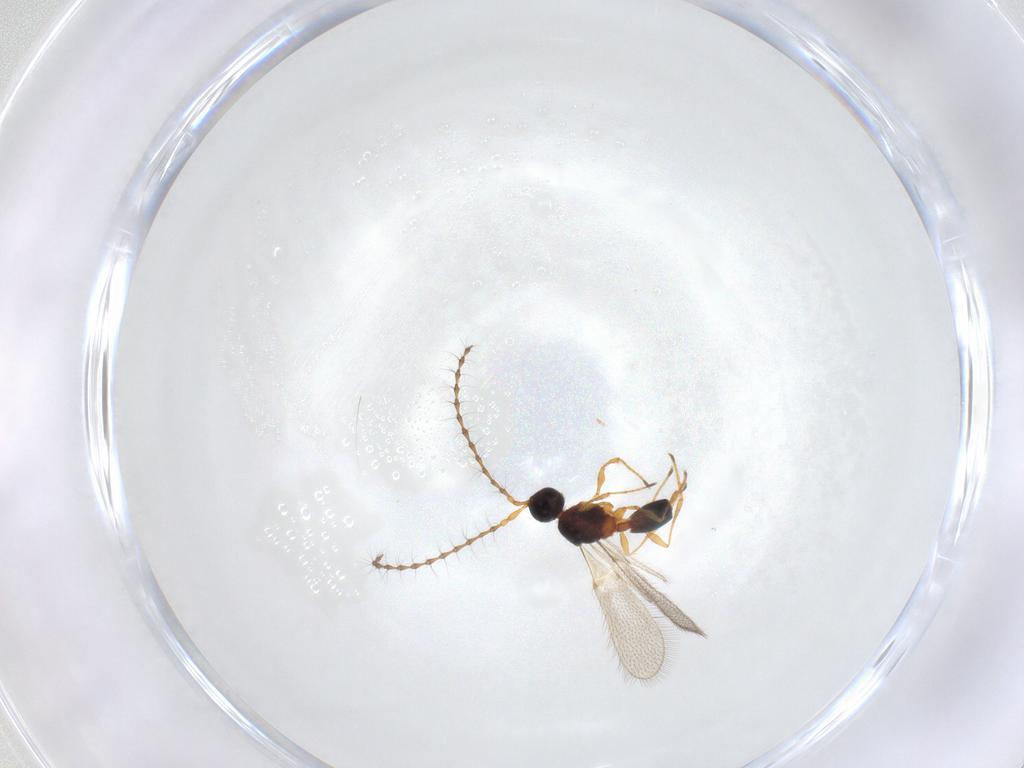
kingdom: Animalia
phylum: Arthropoda
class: Insecta
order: Hymenoptera
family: Diapriidae
